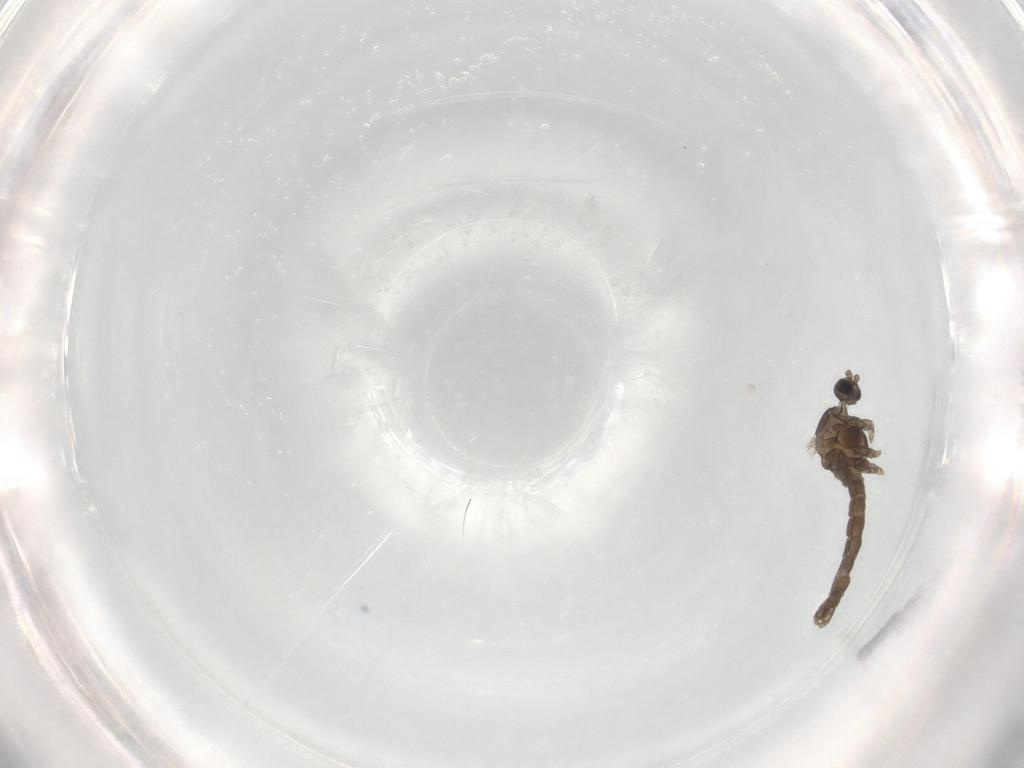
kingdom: Animalia
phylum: Arthropoda
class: Insecta
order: Diptera
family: Cecidomyiidae
